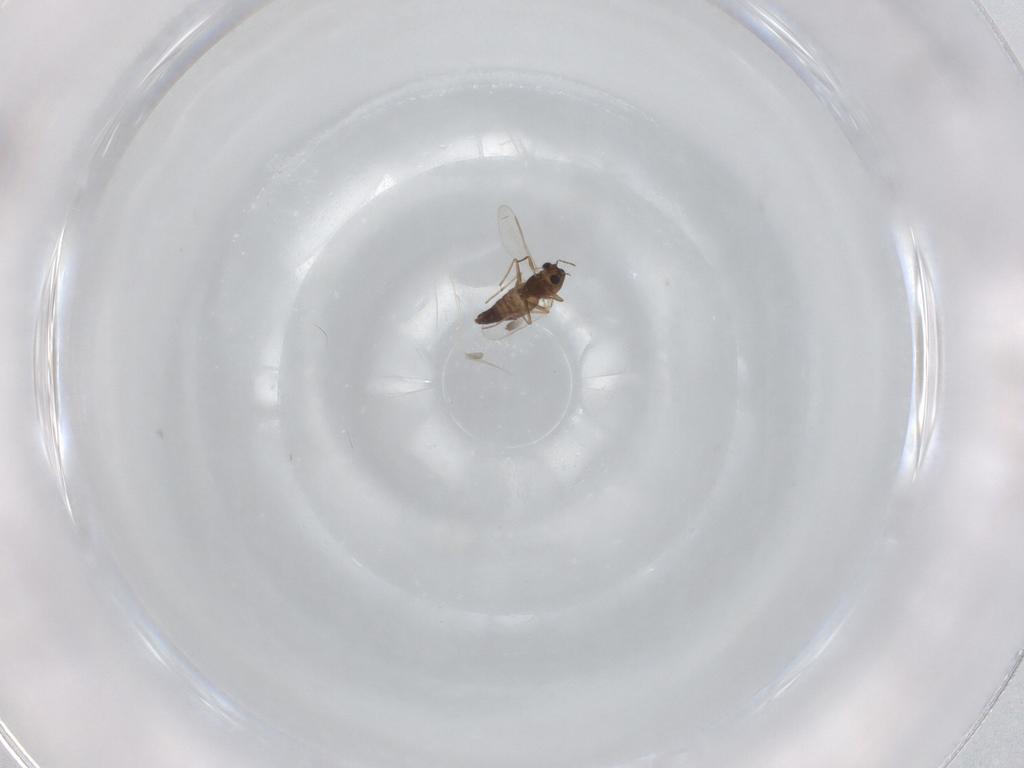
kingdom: Animalia
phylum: Arthropoda
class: Insecta
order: Diptera
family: Chironomidae
